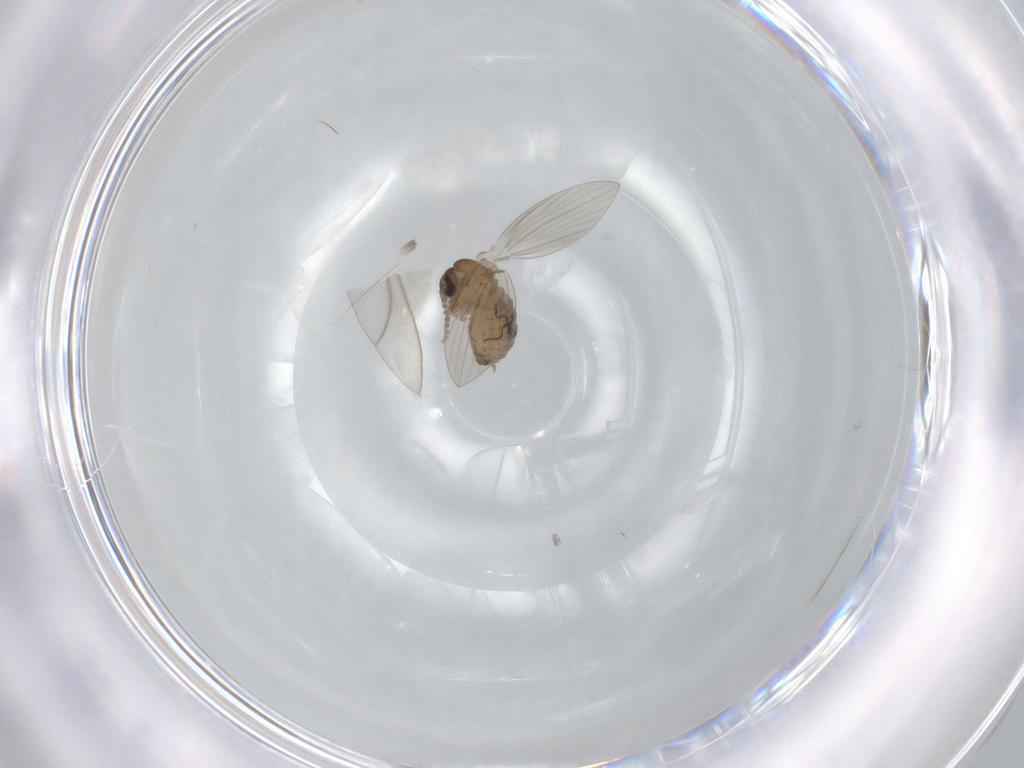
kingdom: Animalia
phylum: Arthropoda
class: Insecta
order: Diptera
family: Psychodidae
